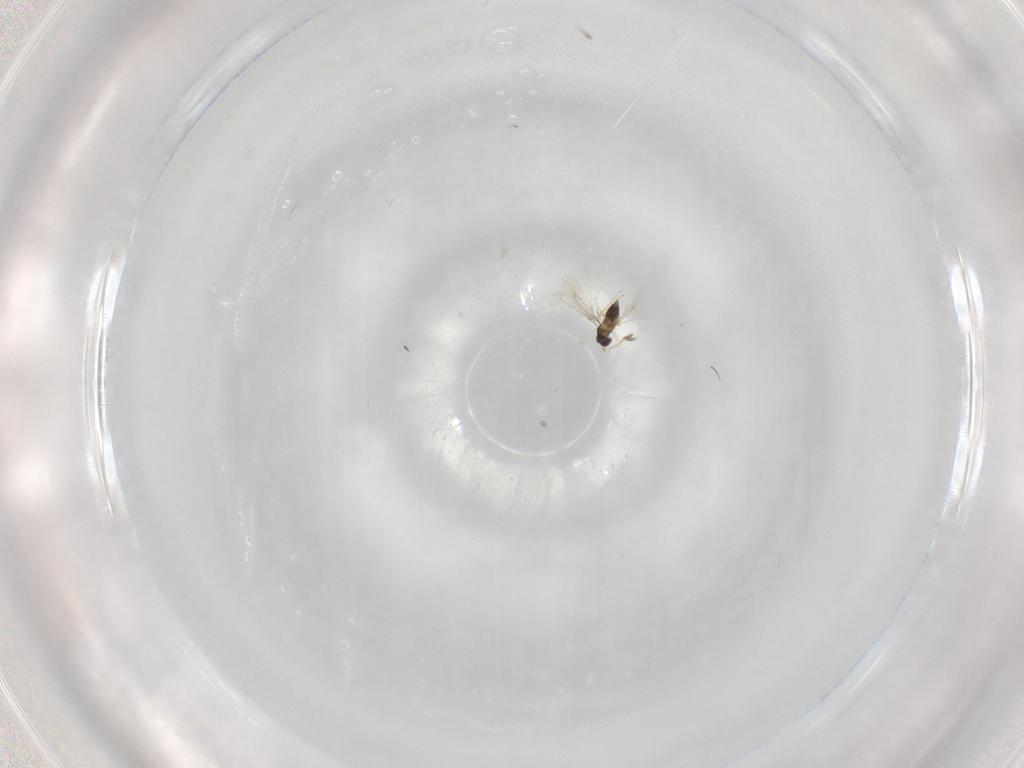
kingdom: Animalia
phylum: Arthropoda
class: Insecta
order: Hymenoptera
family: Mymaridae
